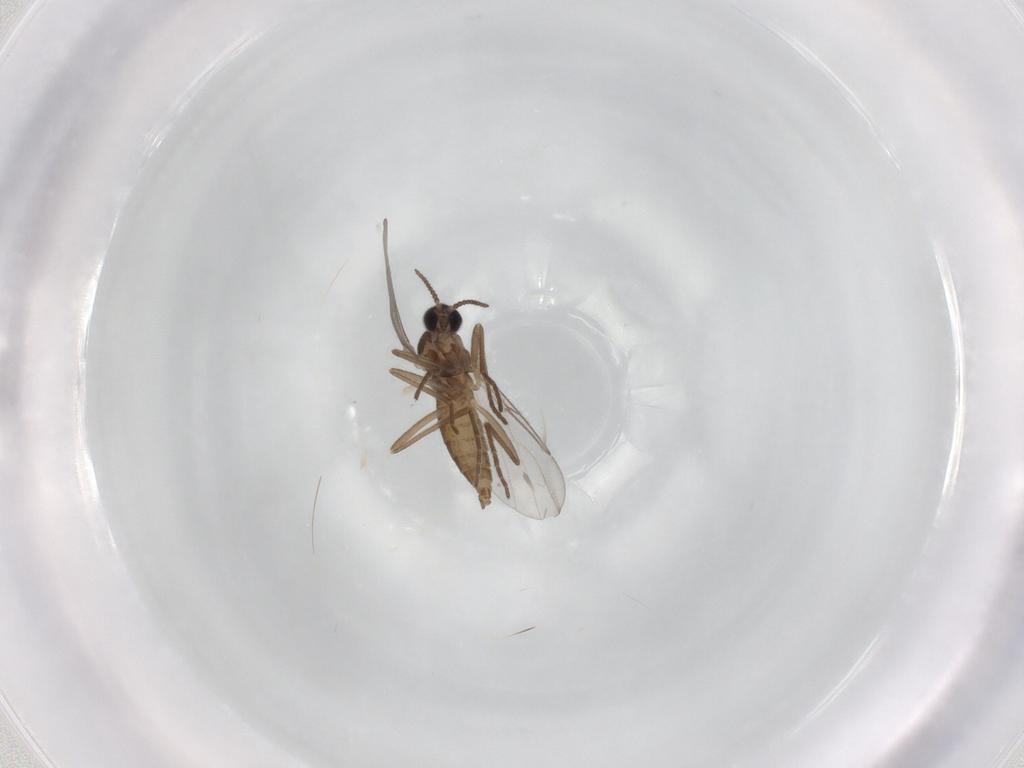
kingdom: Animalia
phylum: Arthropoda
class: Insecta
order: Diptera
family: Cecidomyiidae
